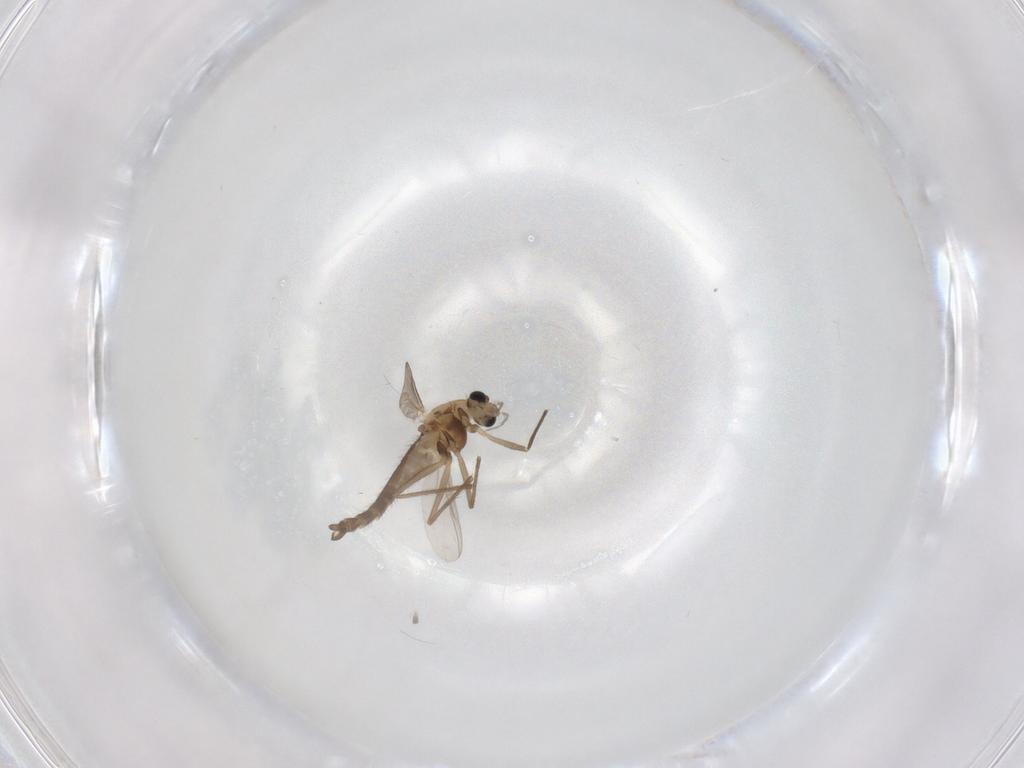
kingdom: Animalia
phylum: Arthropoda
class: Insecta
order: Diptera
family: Chironomidae
